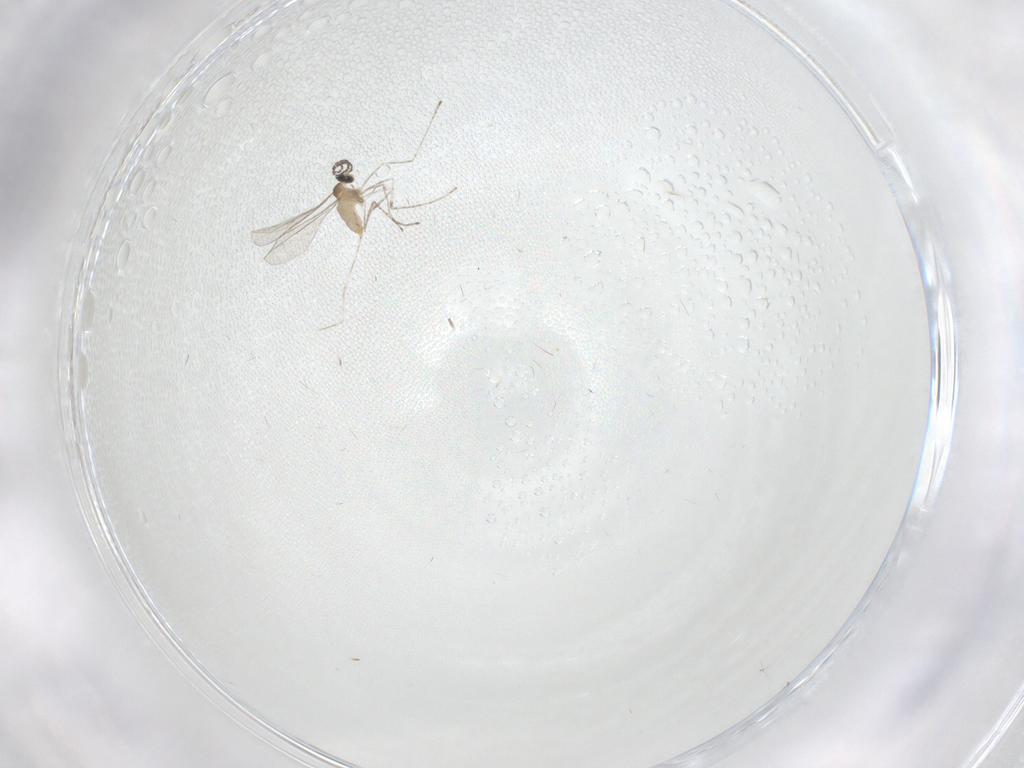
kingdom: Animalia
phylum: Arthropoda
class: Insecta
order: Diptera
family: Cecidomyiidae
